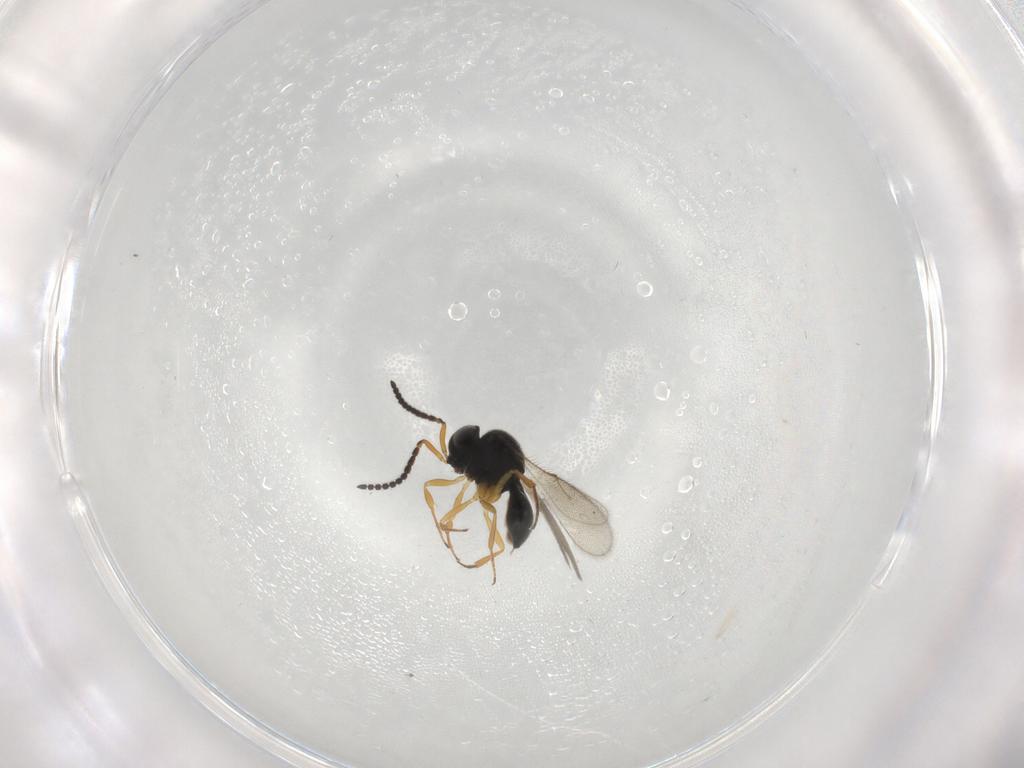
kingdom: Animalia
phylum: Arthropoda
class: Insecta
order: Hymenoptera
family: Scelionidae
